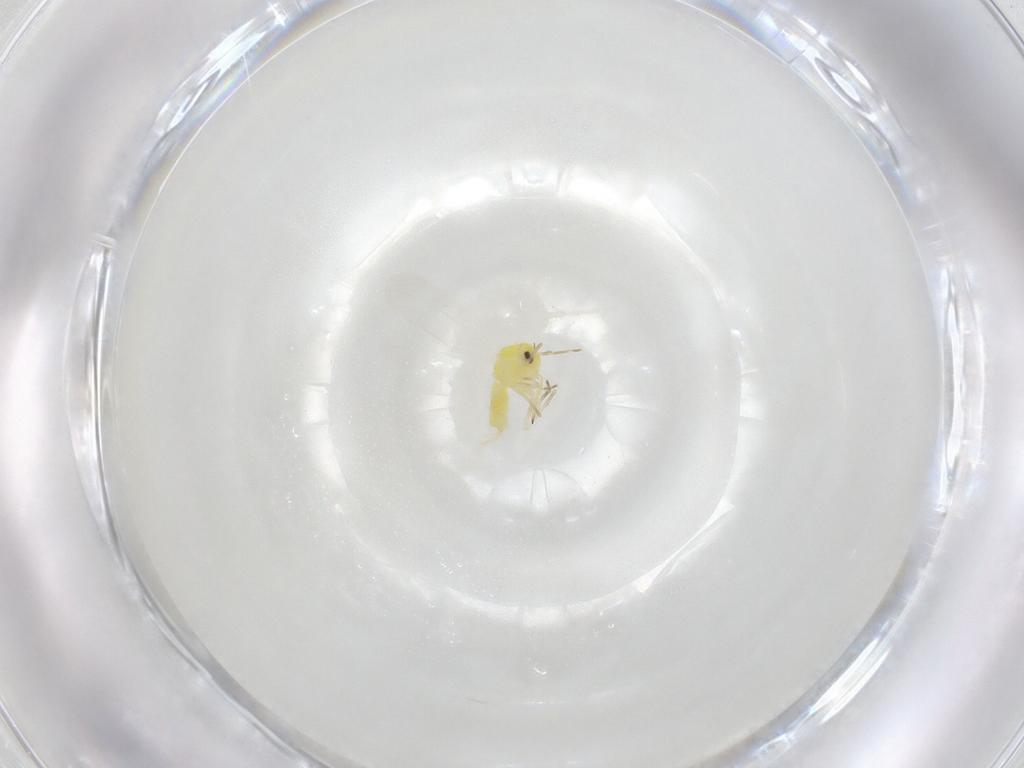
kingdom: Animalia
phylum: Arthropoda
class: Insecta
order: Hemiptera
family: Aleyrodidae
